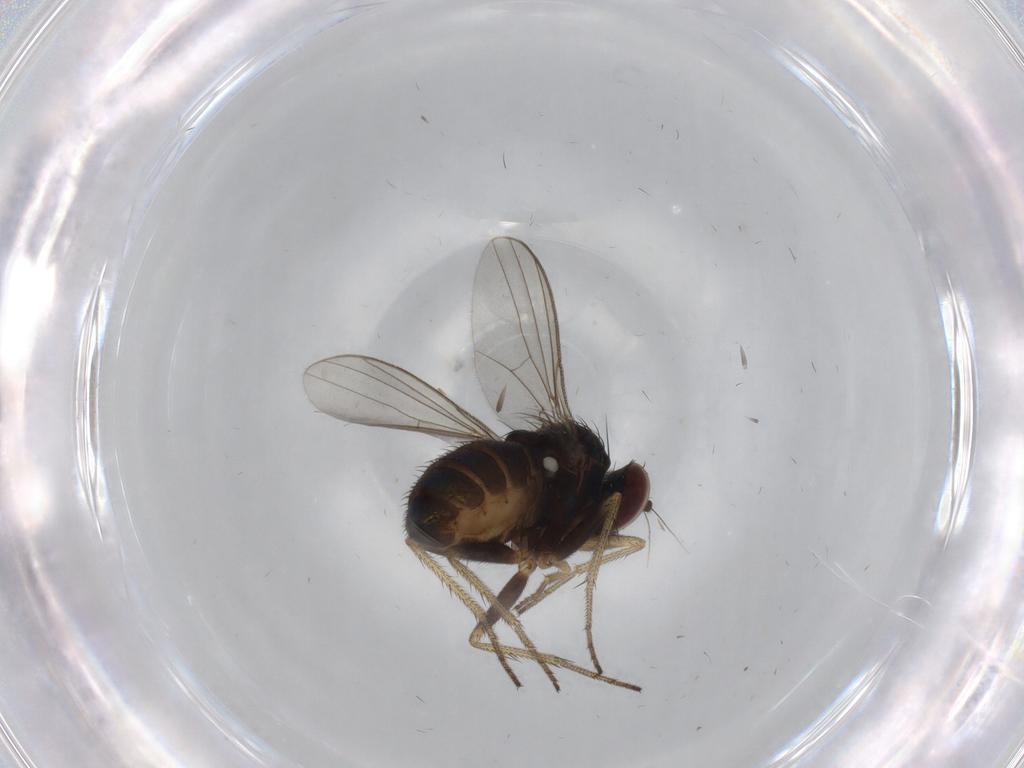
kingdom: Animalia
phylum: Arthropoda
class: Insecta
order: Diptera
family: Dolichopodidae
